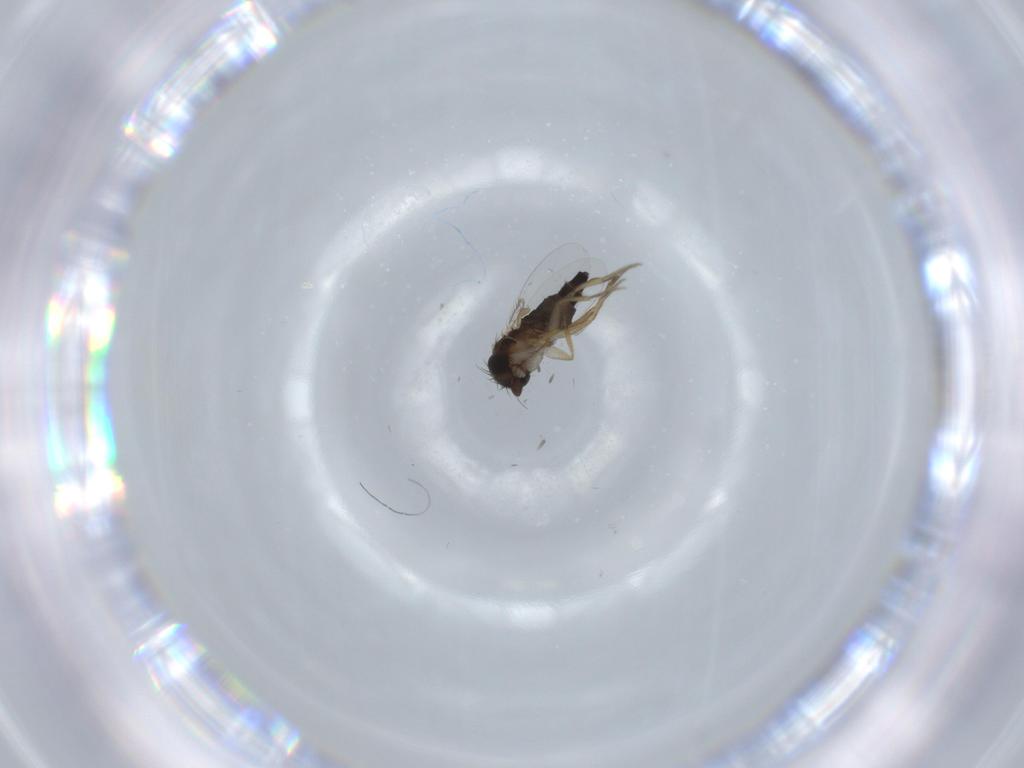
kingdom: Animalia
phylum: Arthropoda
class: Insecta
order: Diptera
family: Phoridae
